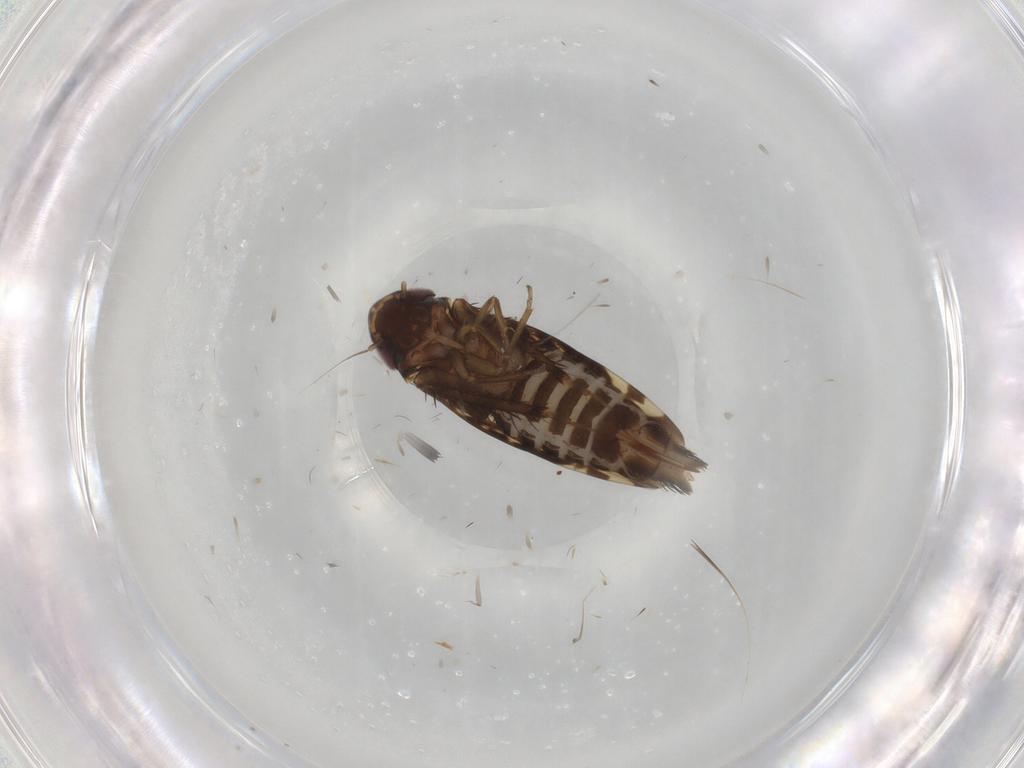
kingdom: Animalia
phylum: Arthropoda
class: Insecta
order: Hemiptera
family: Cicadellidae
